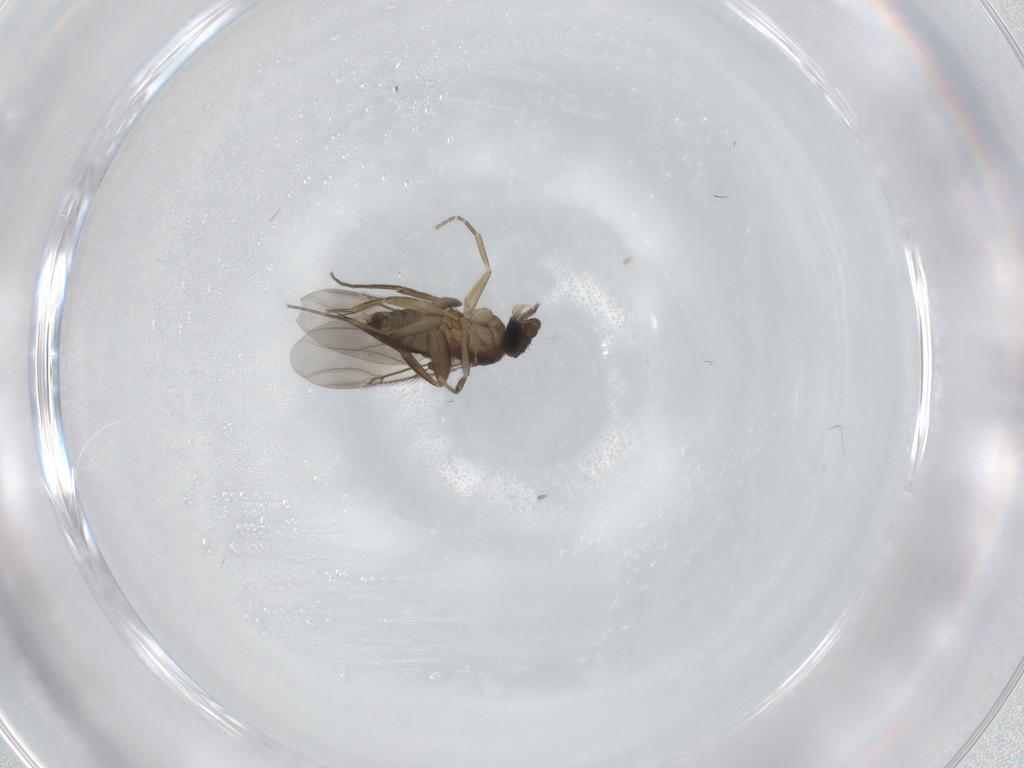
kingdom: Animalia
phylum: Arthropoda
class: Insecta
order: Diptera
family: Phoridae
